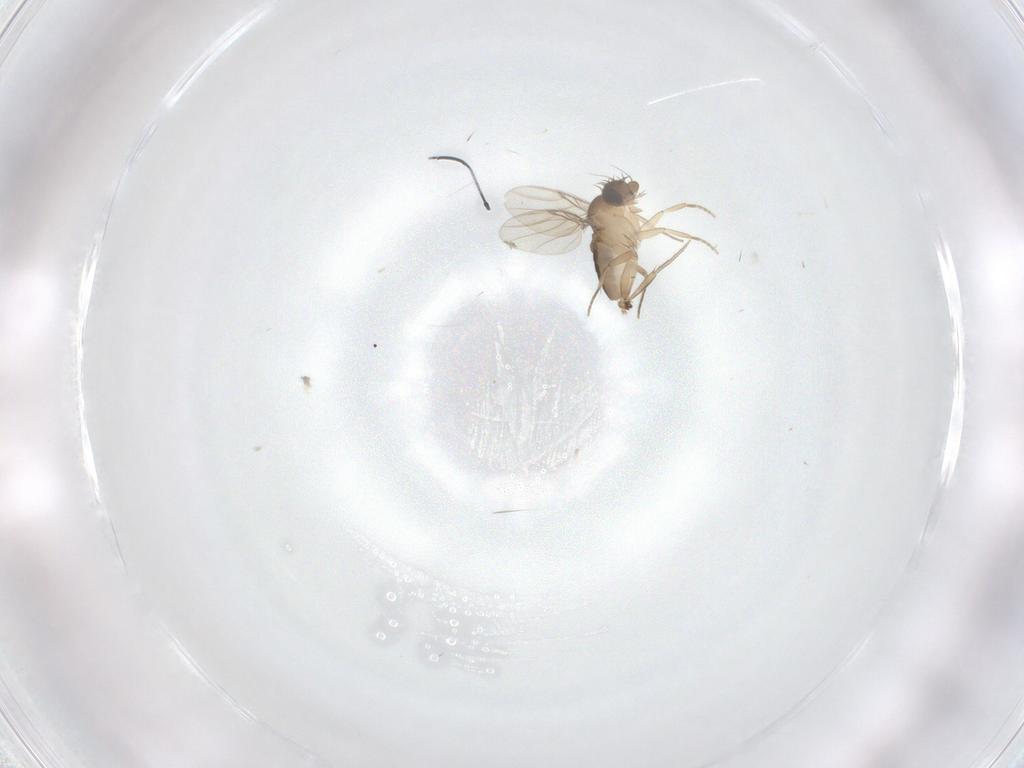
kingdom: Animalia
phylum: Arthropoda
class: Insecta
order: Diptera
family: Phoridae
